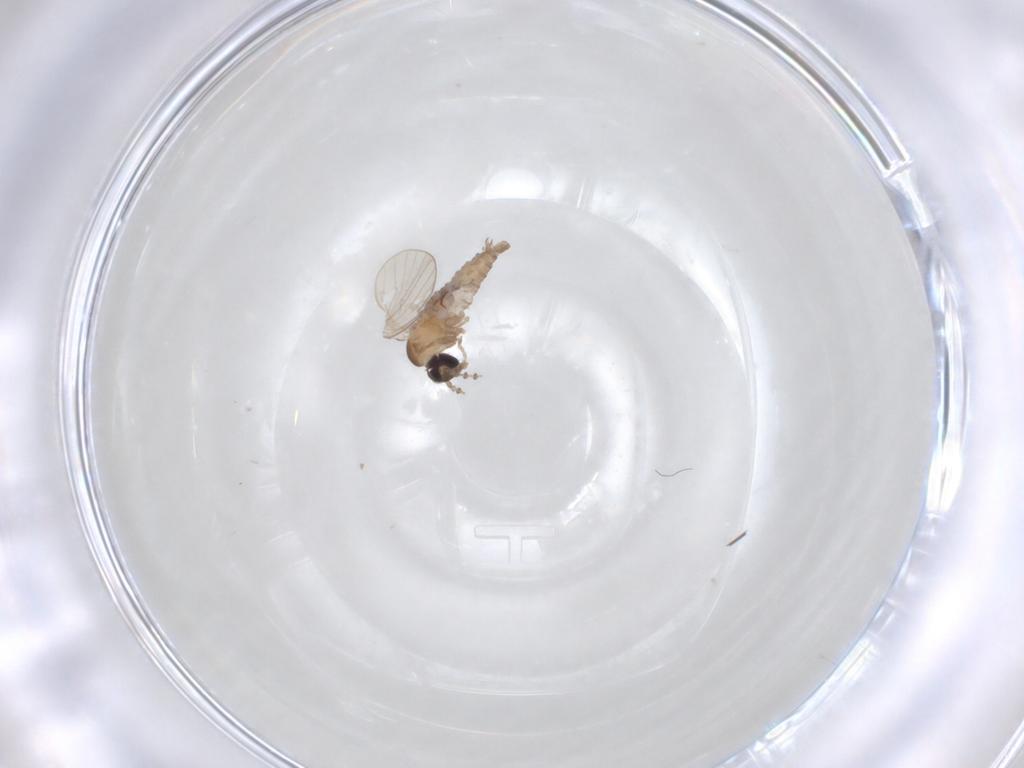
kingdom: Animalia
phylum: Arthropoda
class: Insecta
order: Diptera
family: Psychodidae
